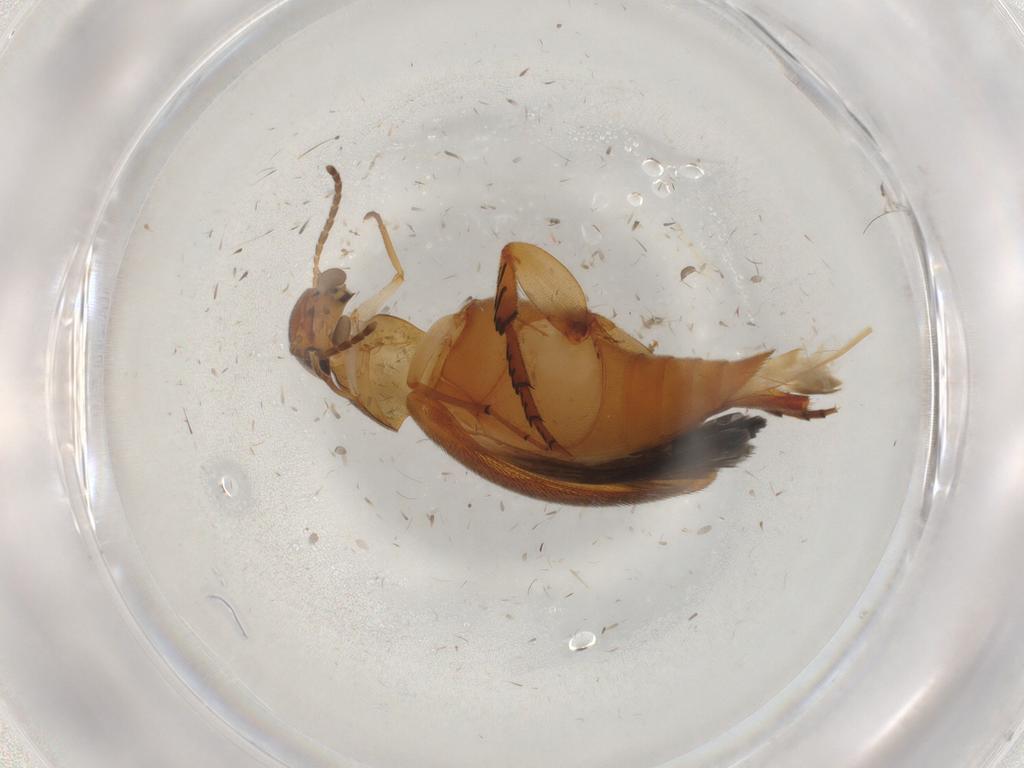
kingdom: Animalia
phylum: Arthropoda
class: Insecta
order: Coleoptera
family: Mordellidae
